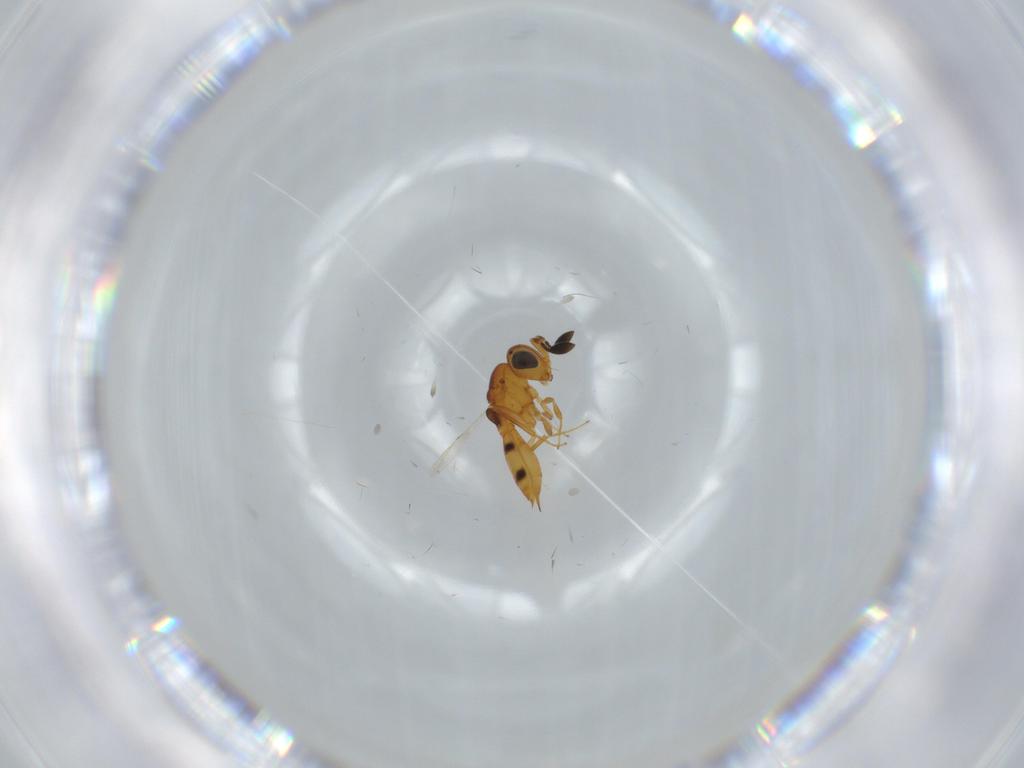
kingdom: Animalia
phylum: Arthropoda
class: Insecta
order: Hymenoptera
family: Scelionidae
